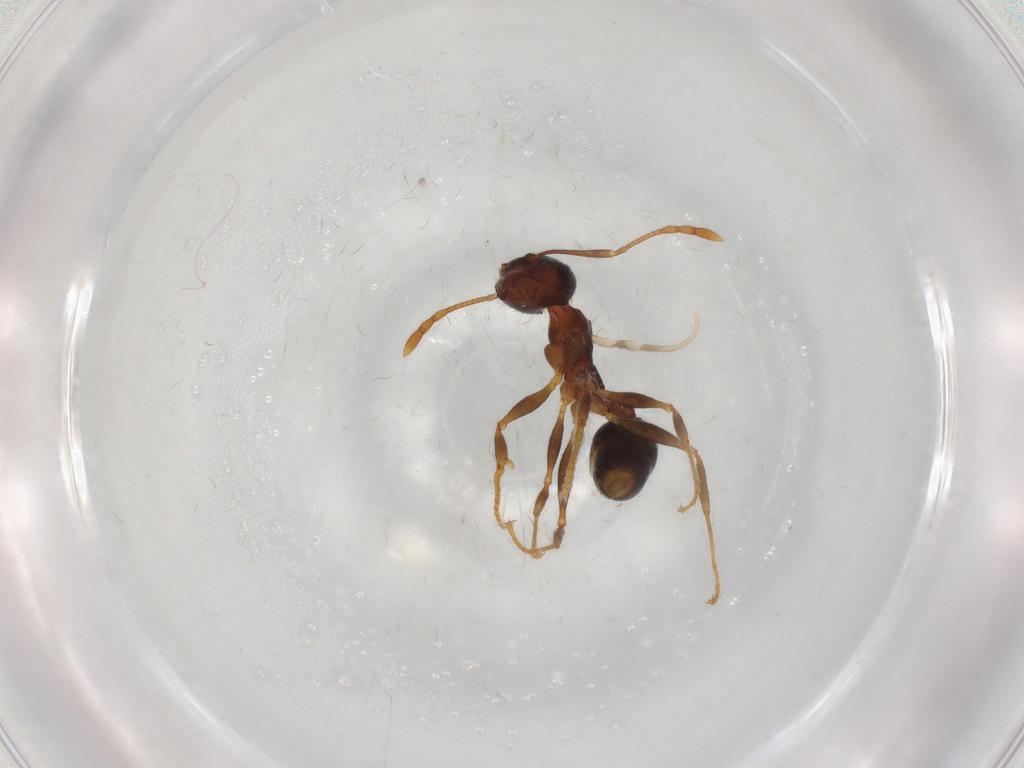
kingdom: Animalia
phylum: Arthropoda
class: Insecta
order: Hymenoptera
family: Formicidae
